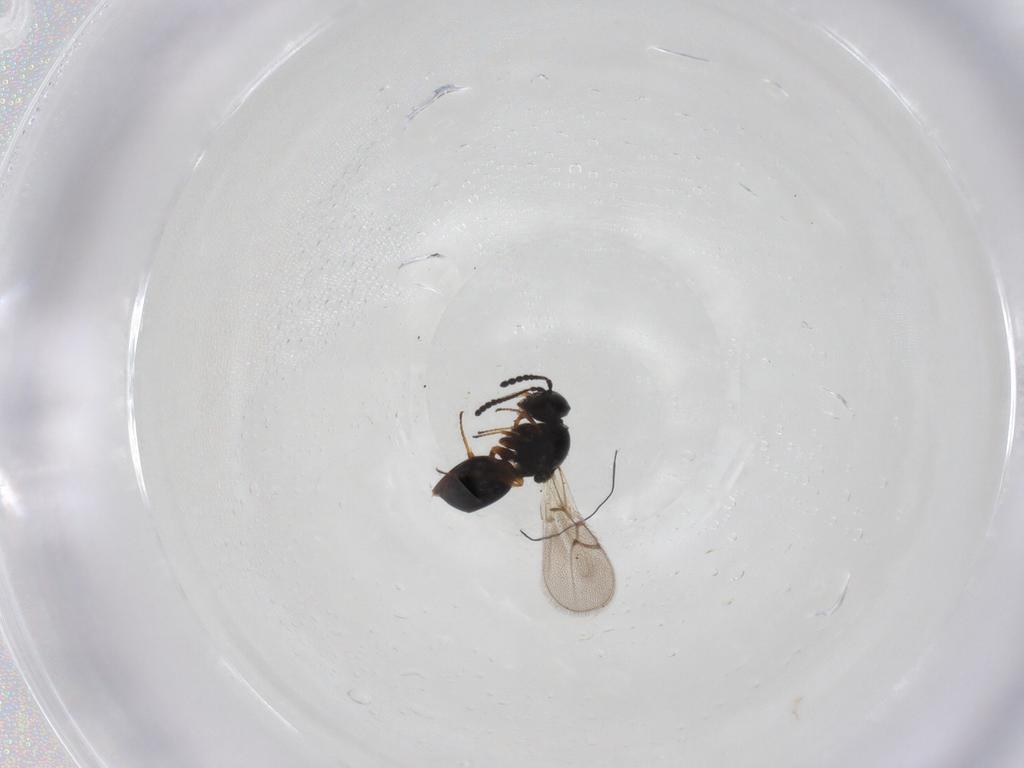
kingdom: Animalia
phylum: Arthropoda
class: Insecta
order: Hymenoptera
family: Figitidae
